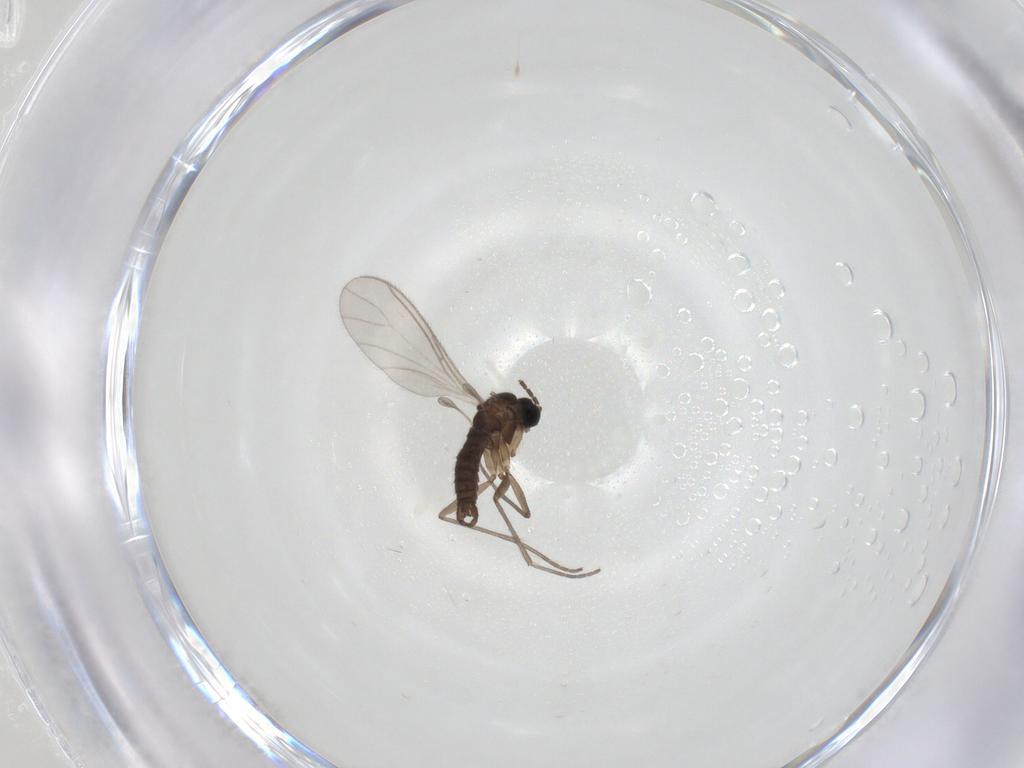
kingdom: Animalia
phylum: Arthropoda
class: Insecta
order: Diptera
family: Sciaridae
